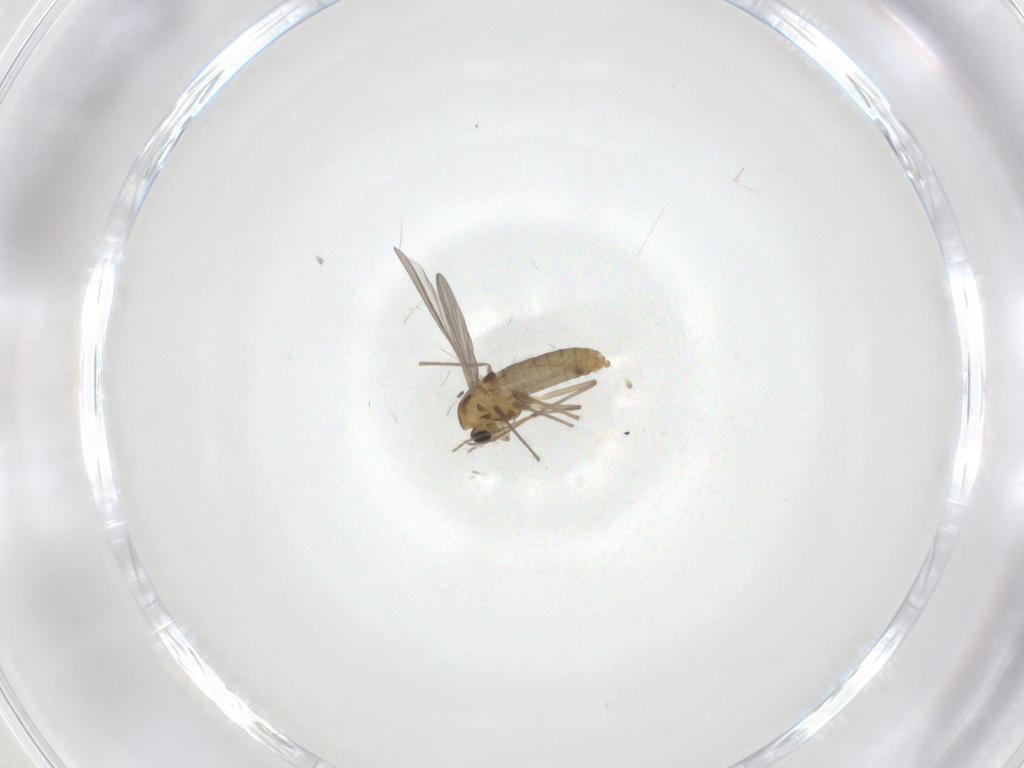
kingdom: Animalia
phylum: Arthropoda
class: Insecta
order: Diptera
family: Chironomidae
